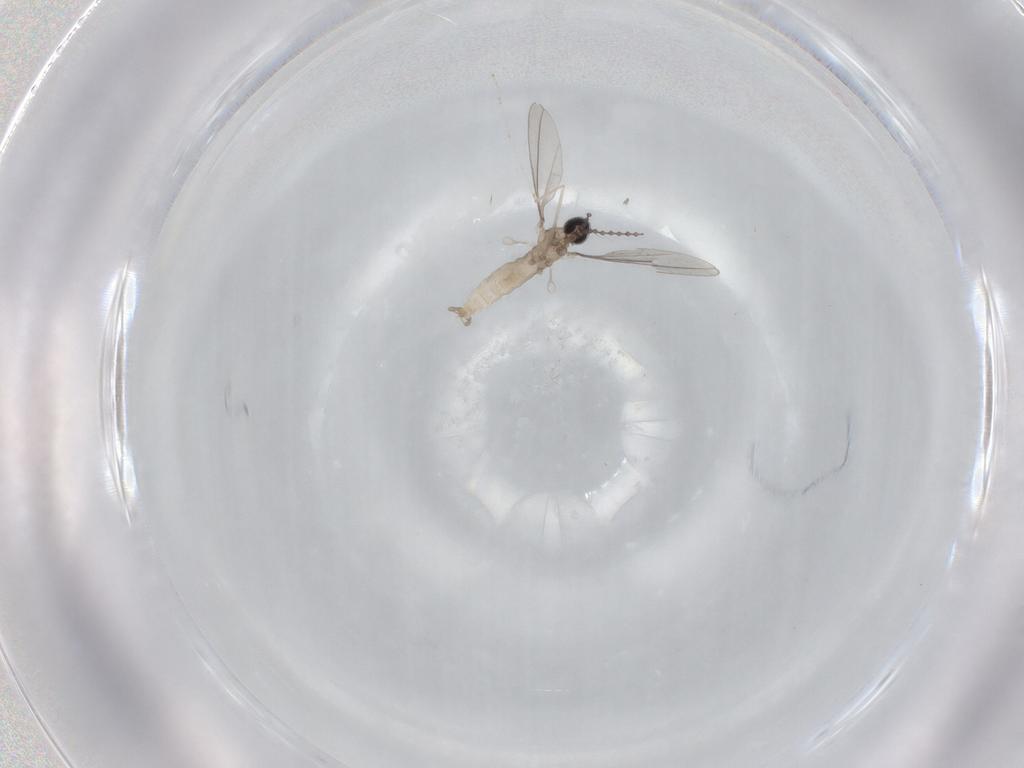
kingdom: Animalia
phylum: Arthropoda
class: Insecta
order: Diptera
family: Cecidomyiidae
